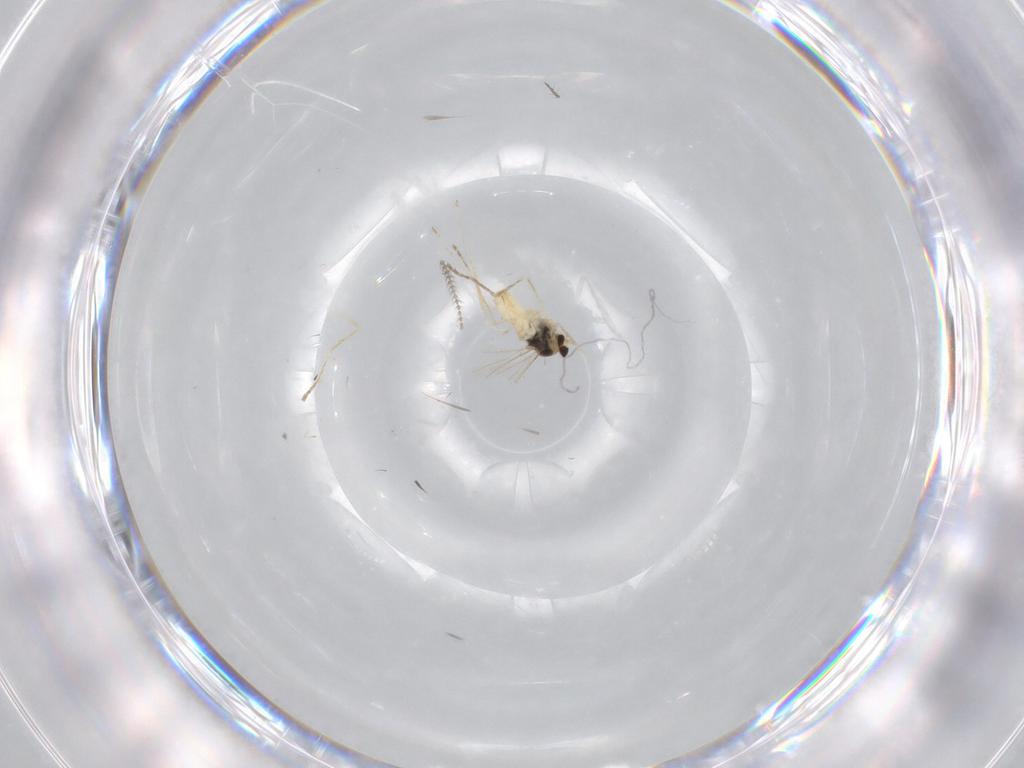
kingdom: Animalia
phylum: Arthropoda
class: Insecta
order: Diptera
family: Cecidomyiidae
